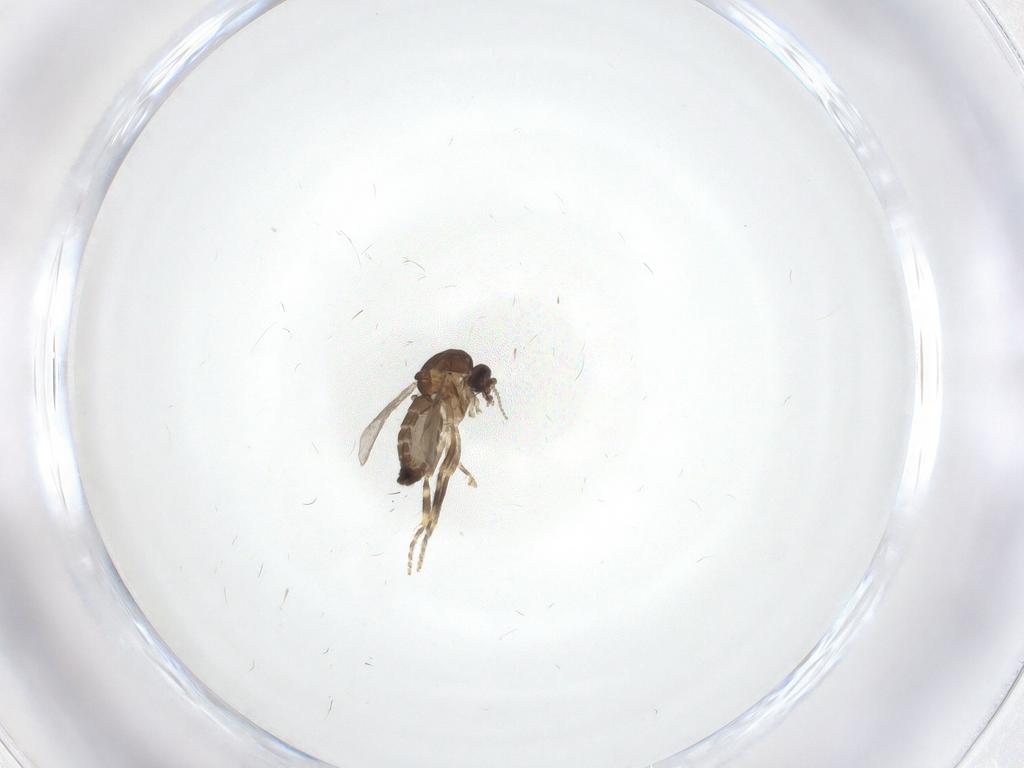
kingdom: Animalia
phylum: Arthropoda
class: Insecta
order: Diptera
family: Ceratopogonidae
